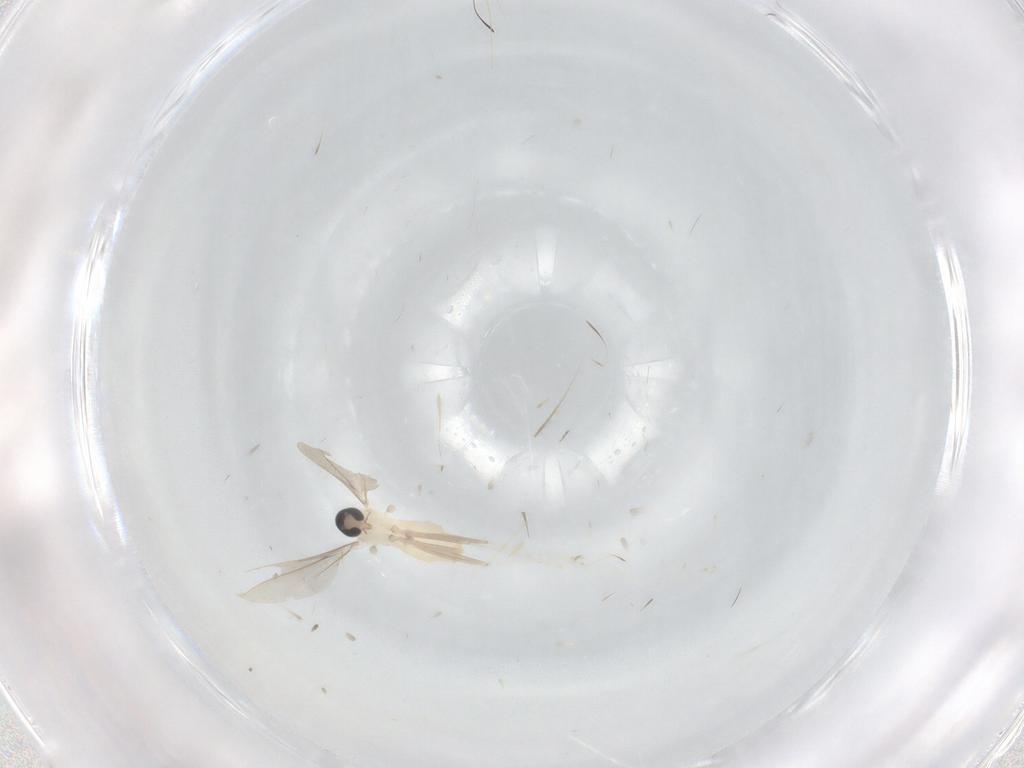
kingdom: Animalia
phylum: Arthropoda
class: Insecta
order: Diptera
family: Cecidomyiidae
